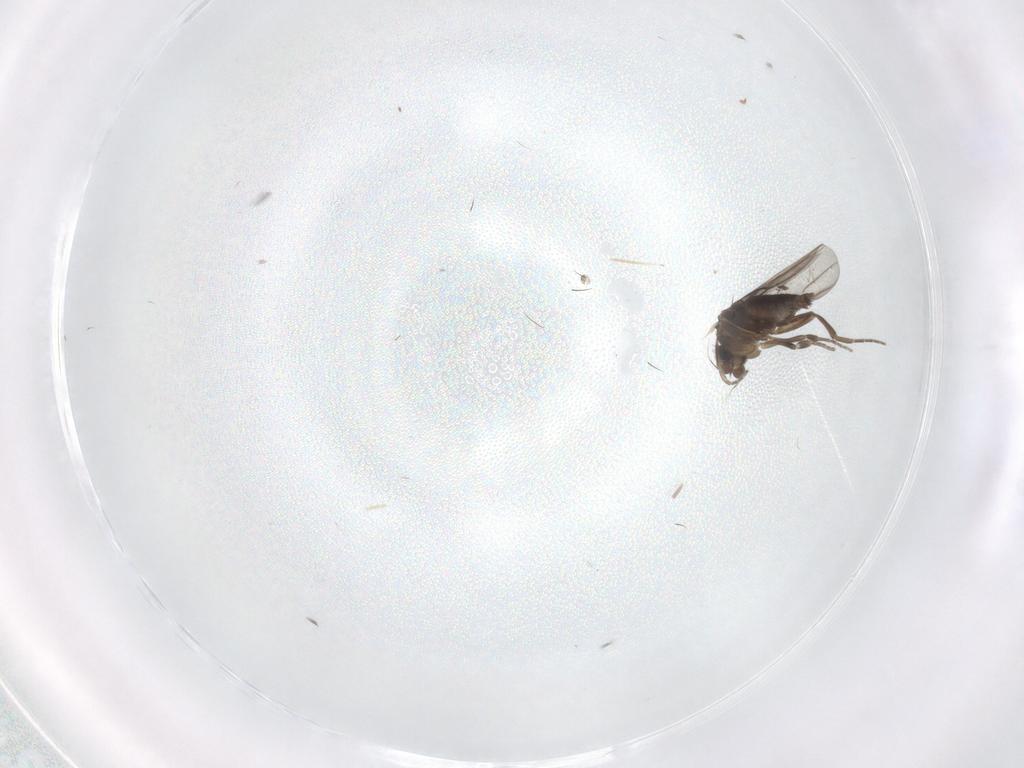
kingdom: Animalia
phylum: Arthropoda
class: Insecta
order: Diptera
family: Phoridae
